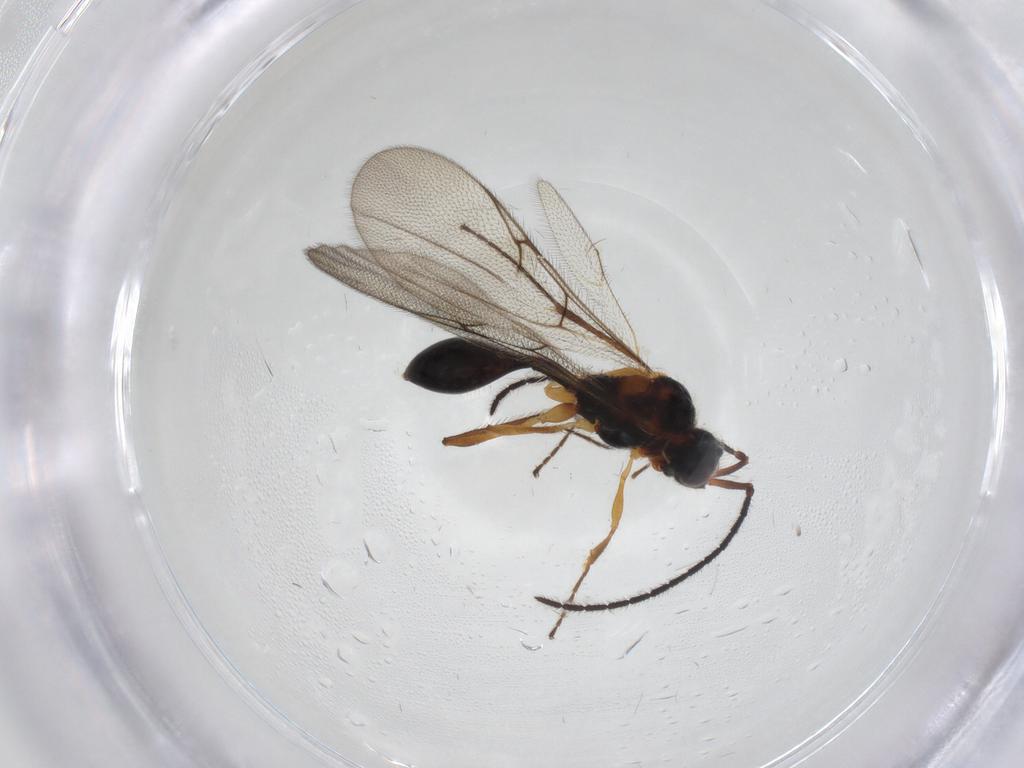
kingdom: Animalia
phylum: Arthropoda
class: Insecta
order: Hymenoptera
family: Diapriidae
